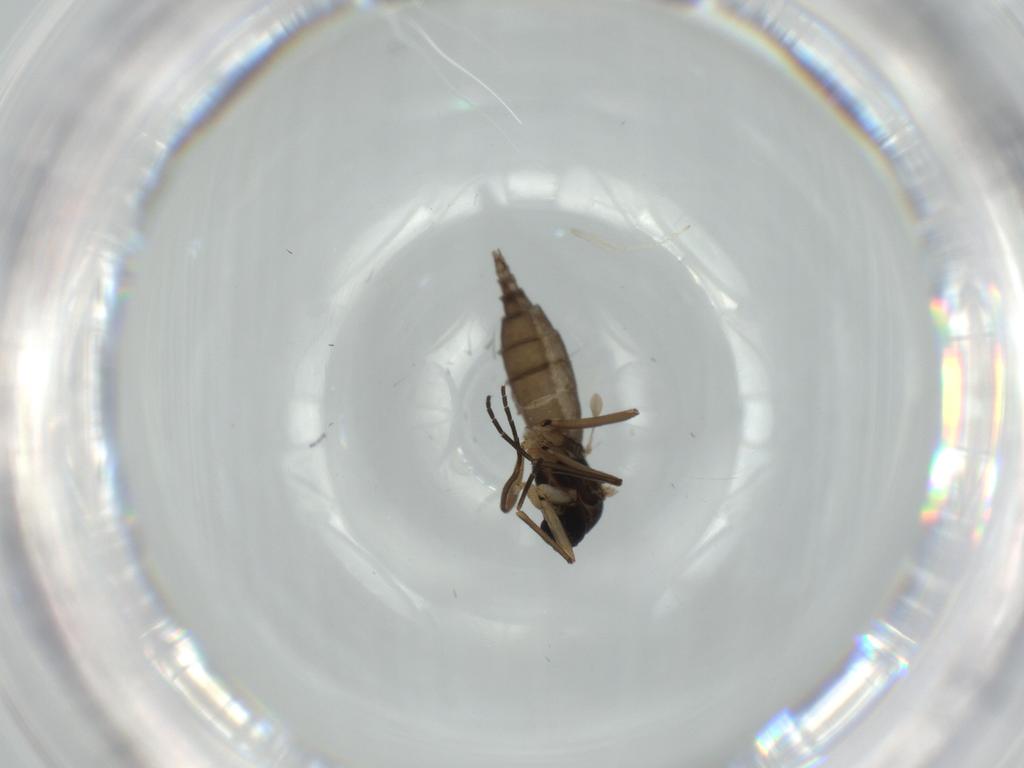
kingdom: Animalia
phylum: Arthropoda
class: Insecta
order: Diptera
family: Sciaridae
